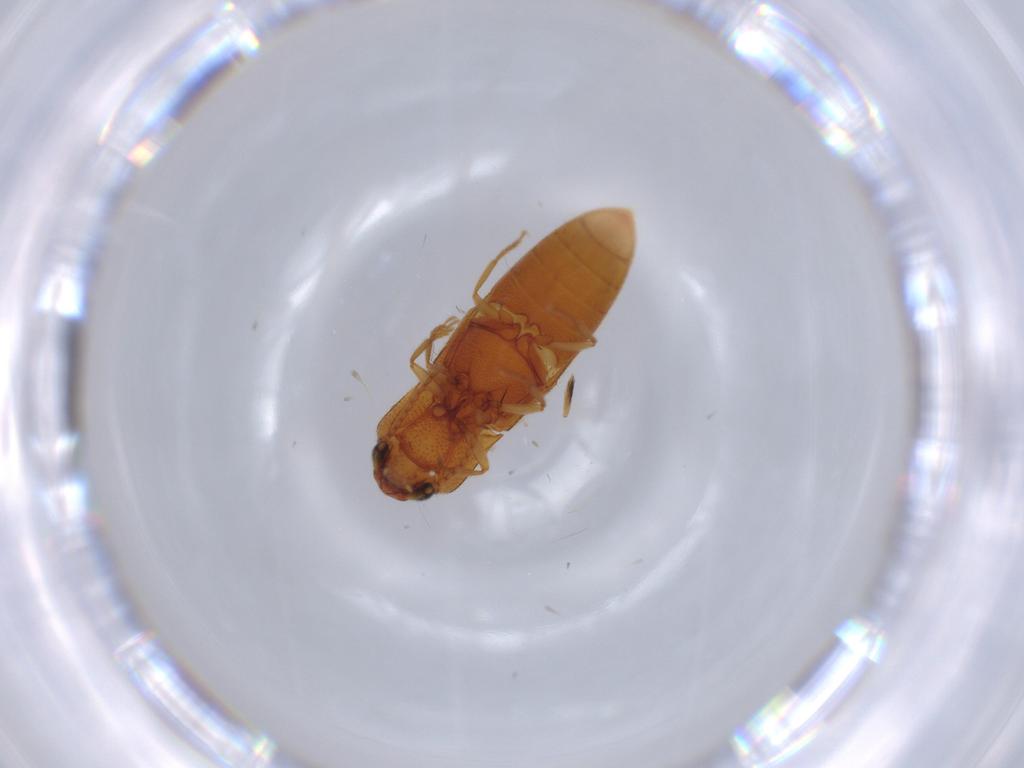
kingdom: Animalia
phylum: Arthropoda
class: Insecta
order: Coleoptera
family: Elateridae
